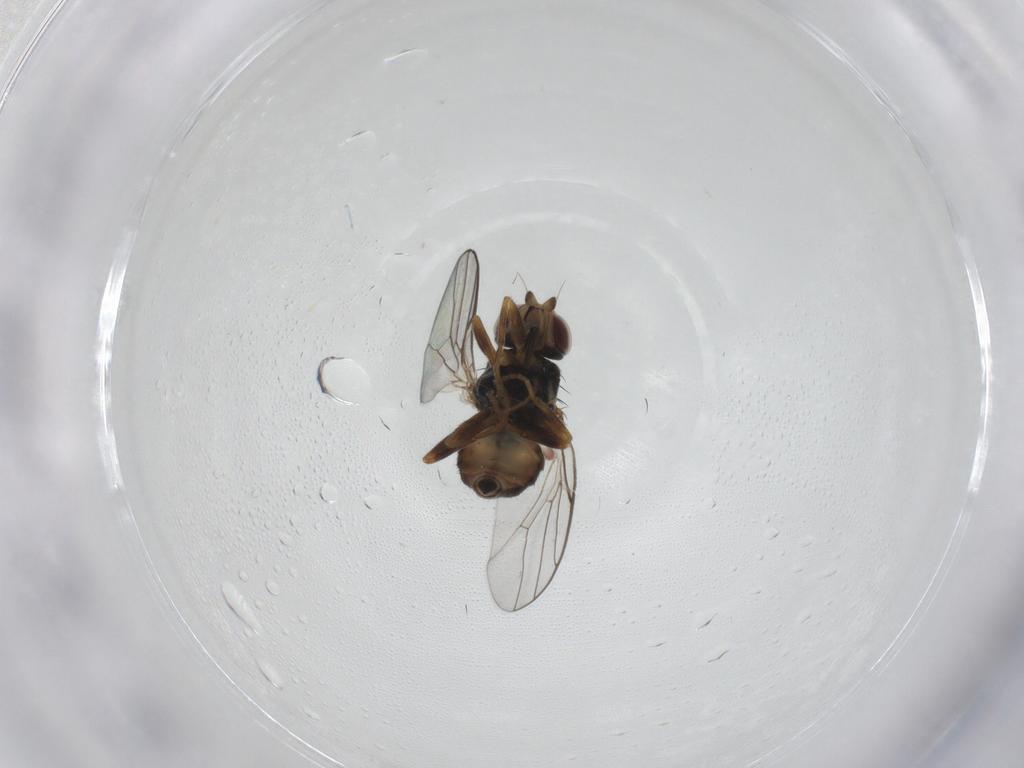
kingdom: Animalia
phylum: Arthropoda
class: Insecta
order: Diptera
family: Chloropidae
